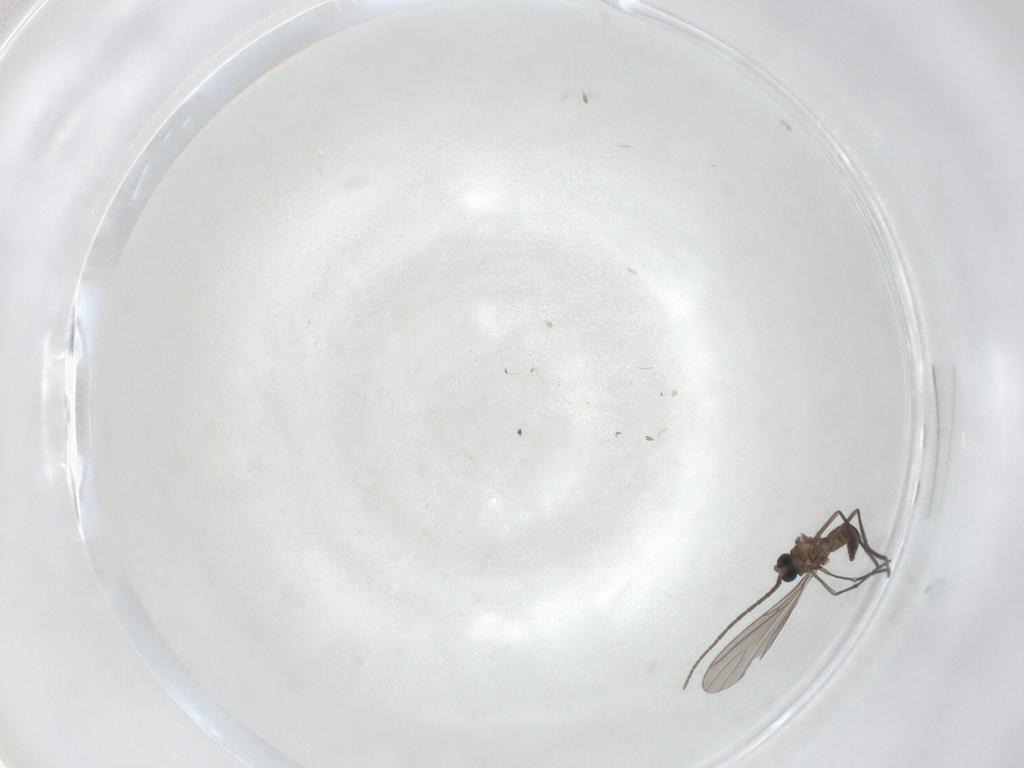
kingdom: Animalia
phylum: Arthropoda
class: Insecta
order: Diptera
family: Sciaridae
